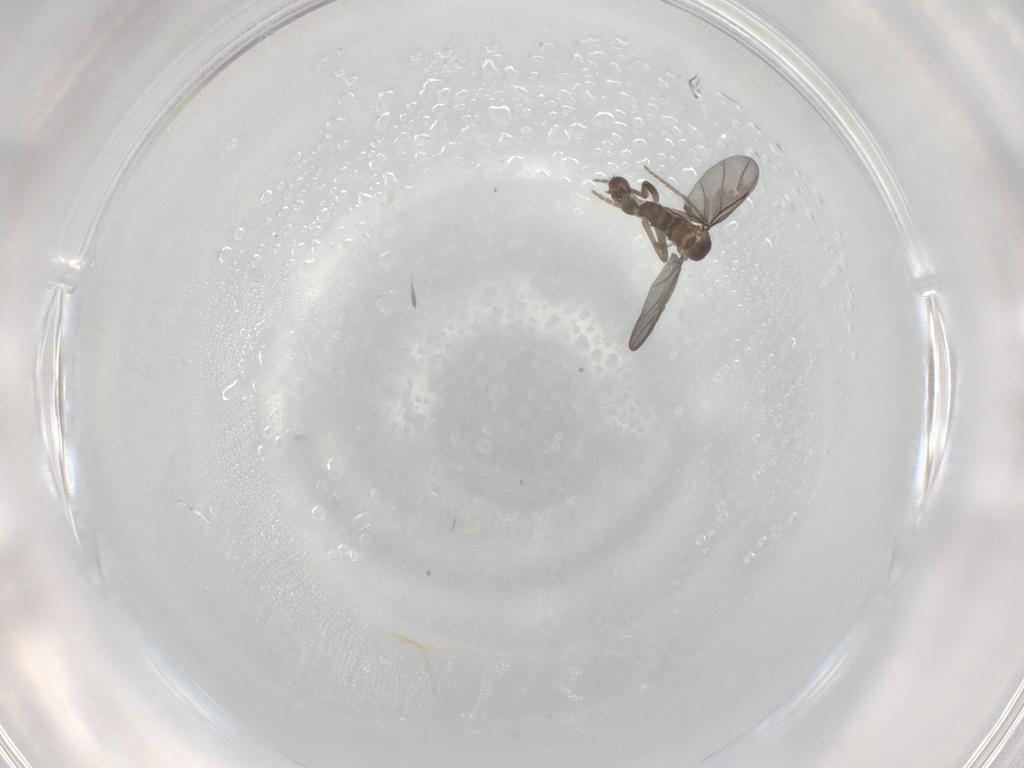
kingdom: Animalia
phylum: Arthropoda
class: Insecta
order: Diptera
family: Phoridae
